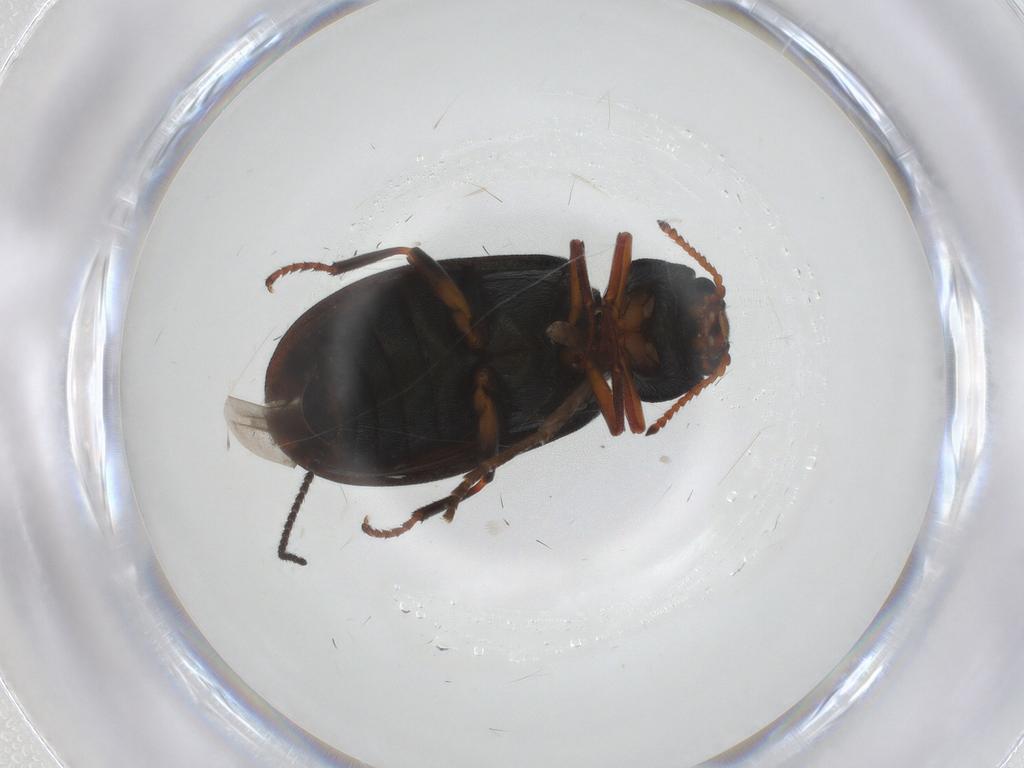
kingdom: Animalia
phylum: Arthropoda
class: Insecta
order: Coleoptera
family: Melyridae
